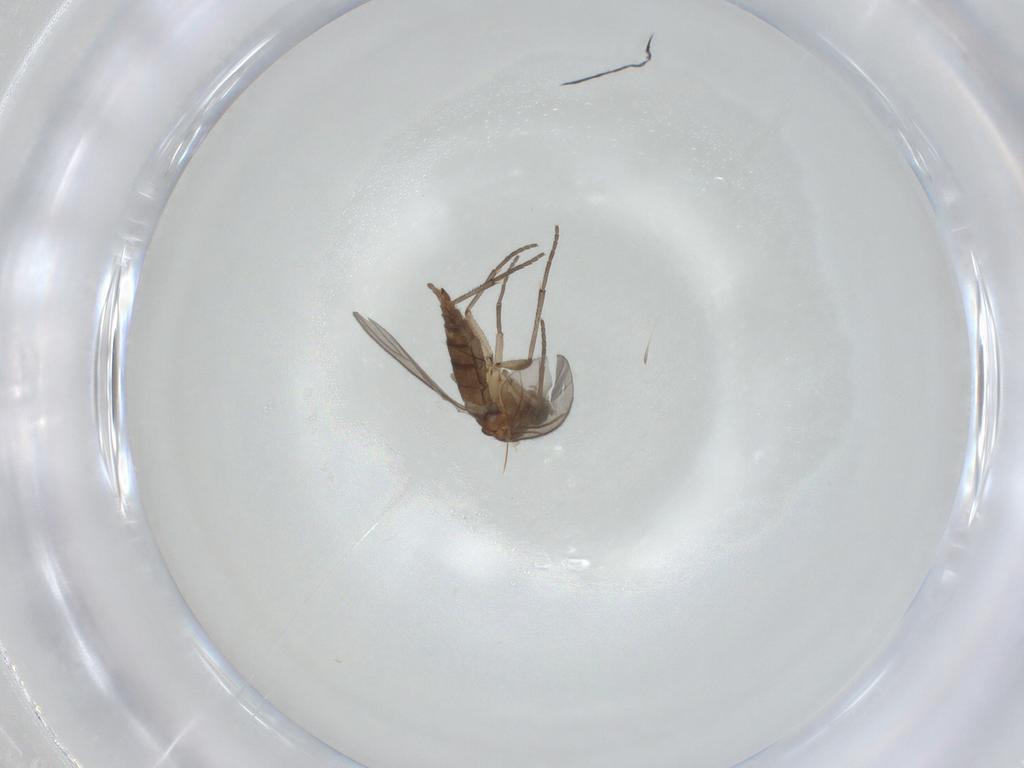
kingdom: Animalia
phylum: Arthropoda
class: Insecta
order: Diptera
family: Sciaridae
